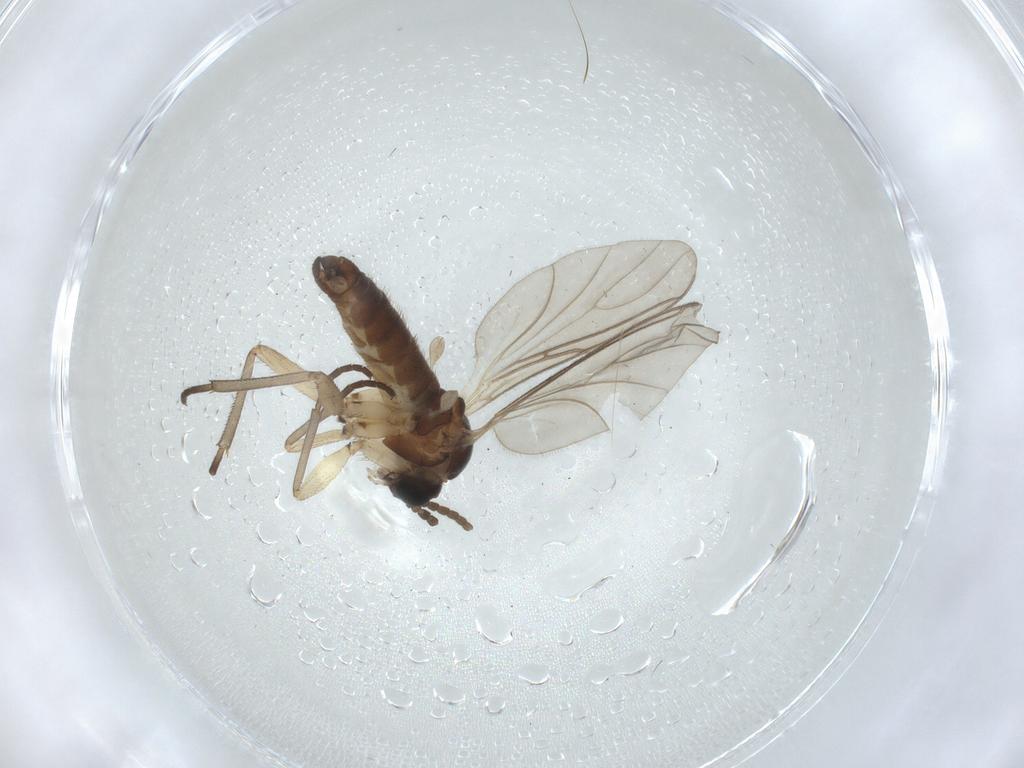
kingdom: Animalia
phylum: Arthropoda
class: Insecta
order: Diptera
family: Sciaridae
